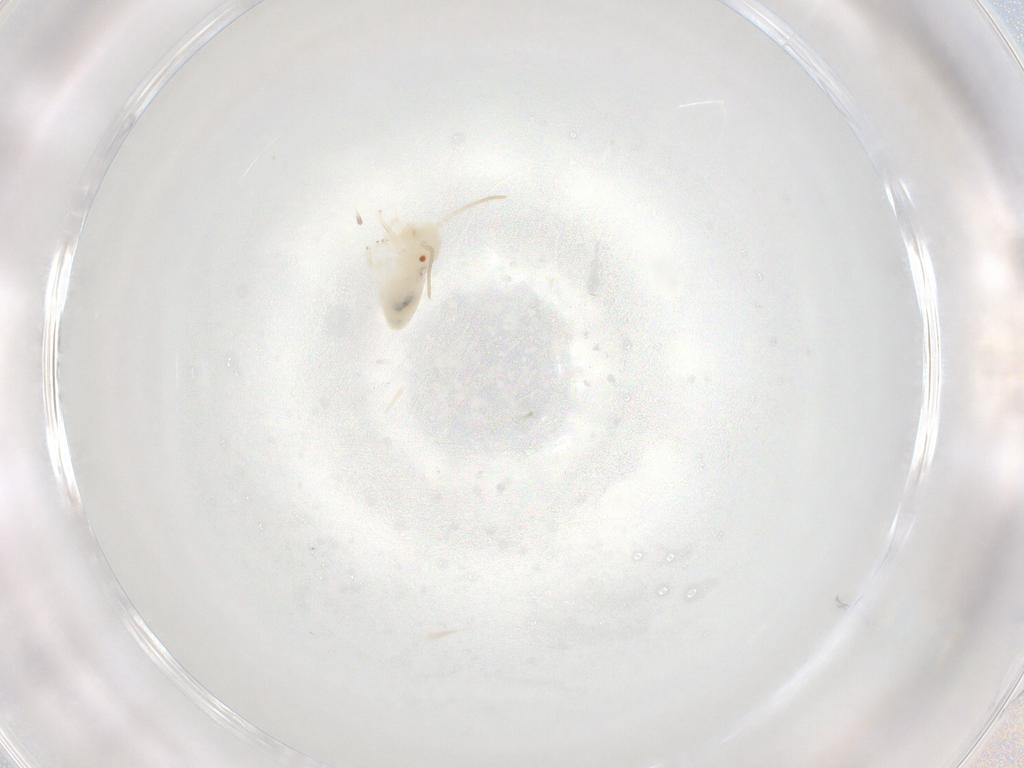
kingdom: Animalia
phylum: Arthropoda
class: Insecta
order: Psocodea
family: Caeciliusidae
